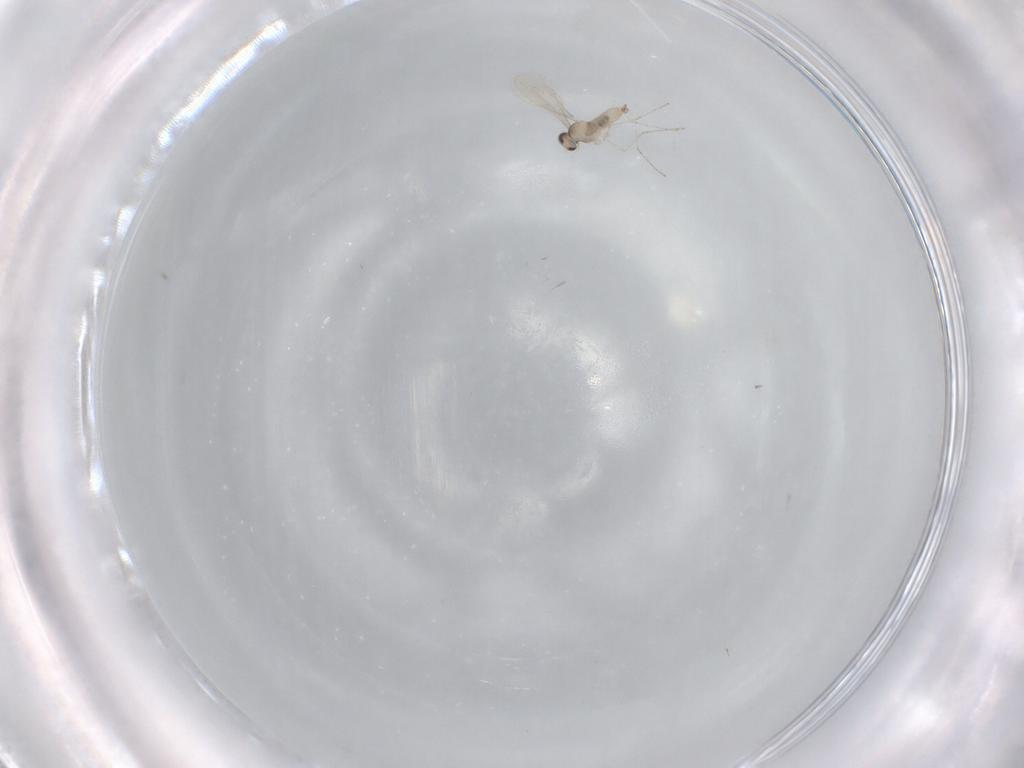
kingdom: Animalia
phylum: Arthropoda
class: Insecta
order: Diptera
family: Cecidomyiidae
